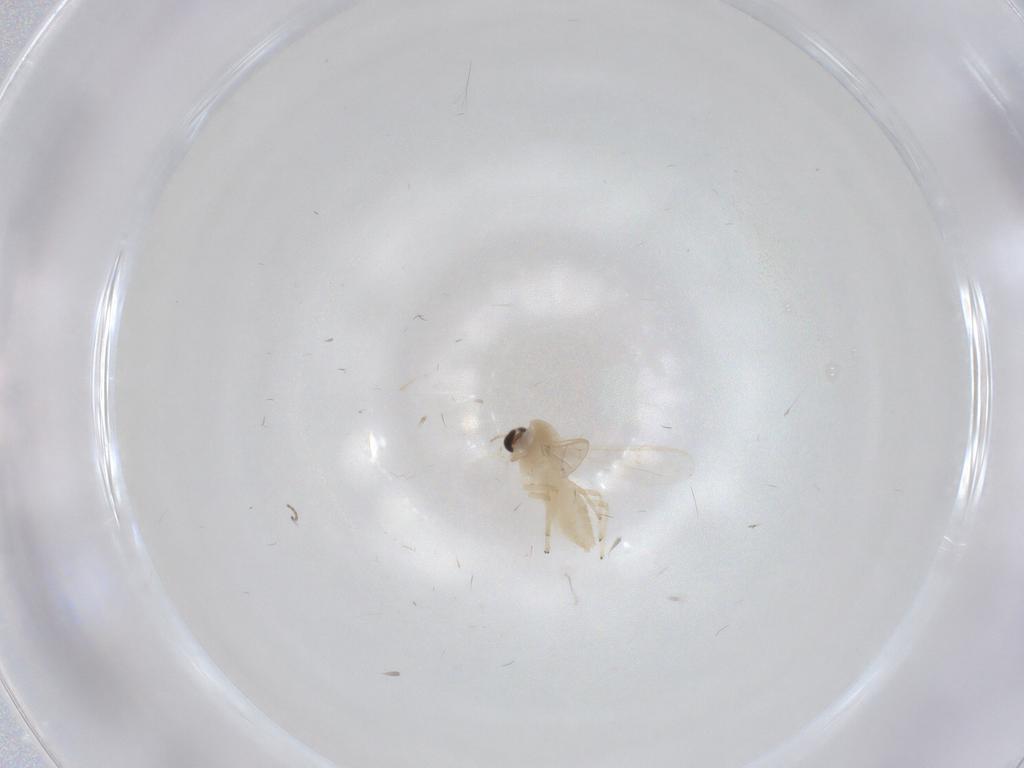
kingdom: Animalia
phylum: Arthropoda
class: Insecta
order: Diptera
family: Chironomidae
